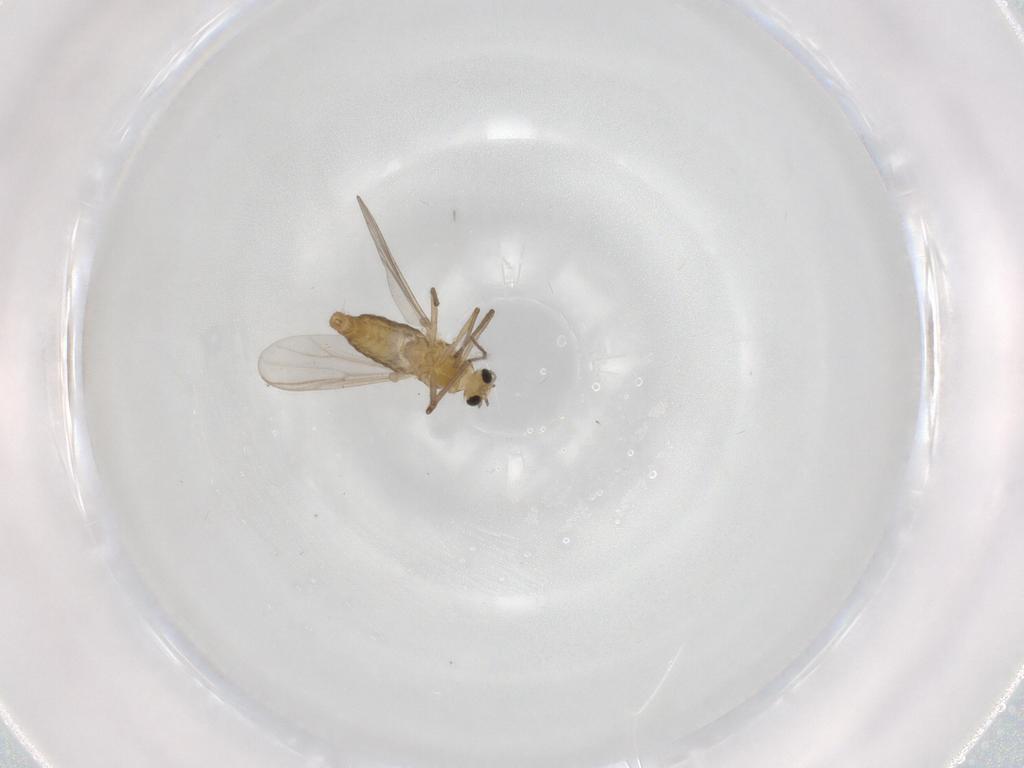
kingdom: Animalia
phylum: Arthropoda
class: Insecta
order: Diptera
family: Chironomidae
